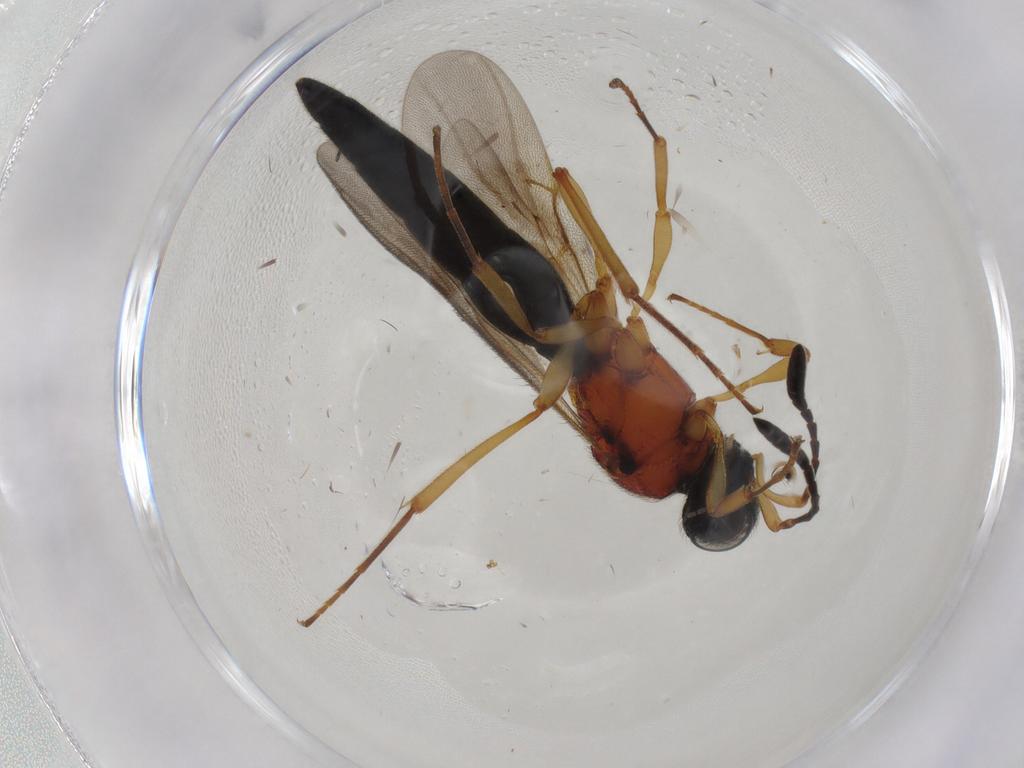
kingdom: Animalia
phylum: Arthropoda
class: Insecta
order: Hymenoptera
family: Scelionidae
